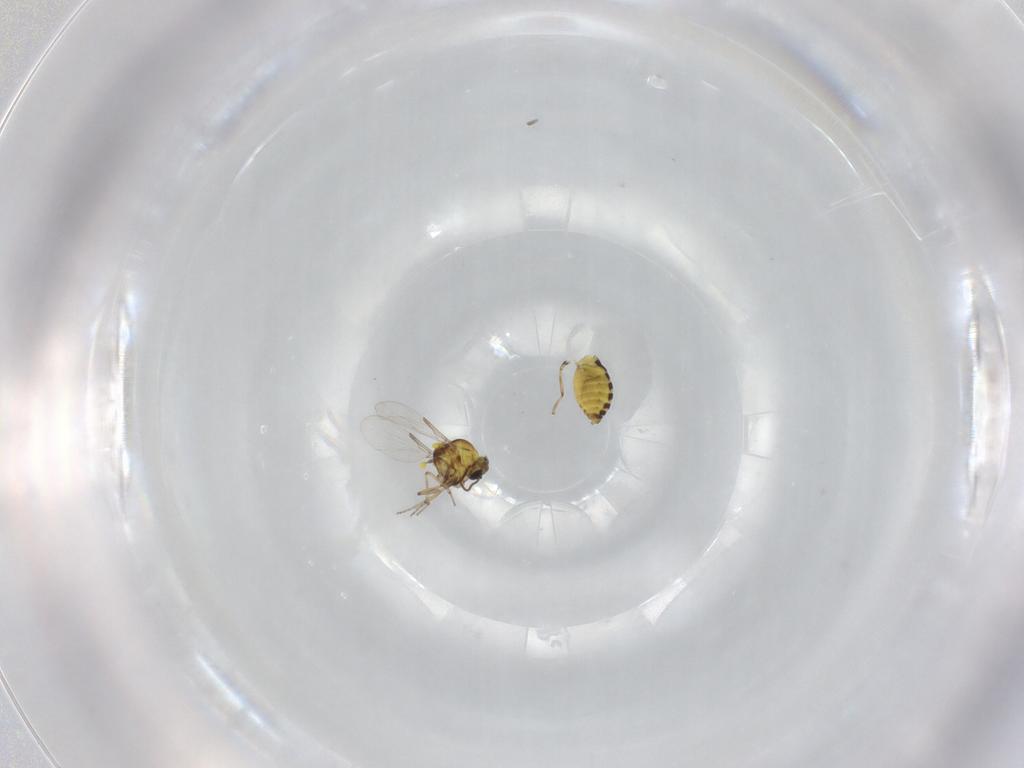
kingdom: Animalia
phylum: Arthropoda
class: Insecta
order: Diptera
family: Ceratopogonidae
